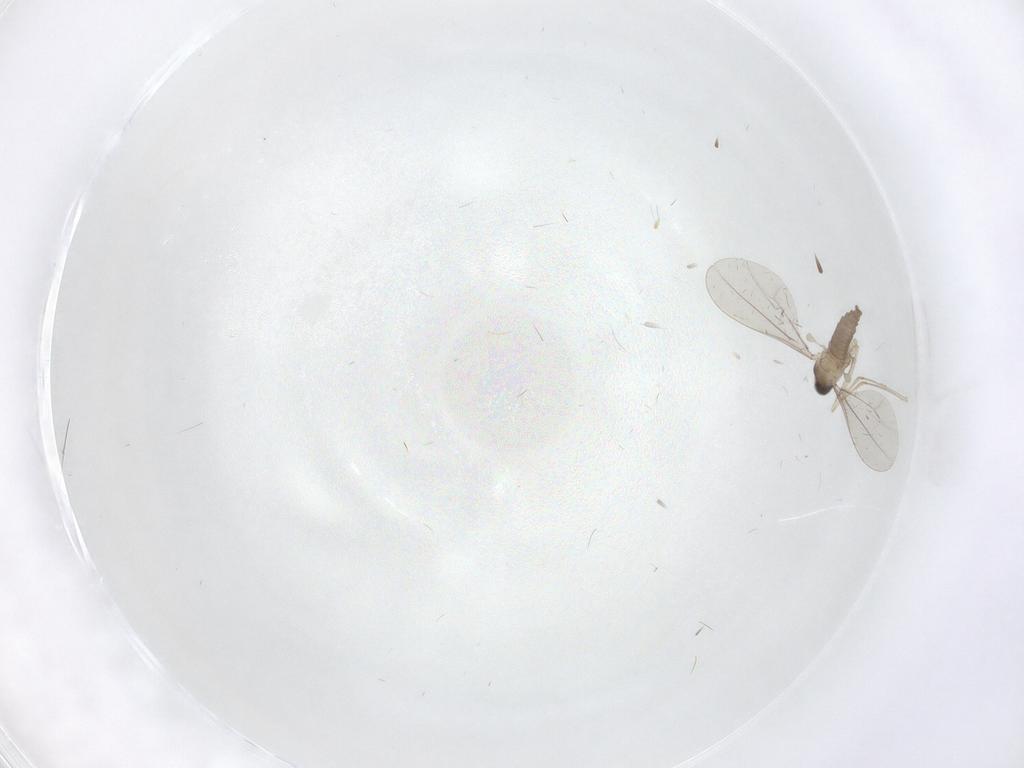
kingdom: Animalia
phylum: Arthropoda
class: Insecta
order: Diptera
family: Cecidomyiidae
